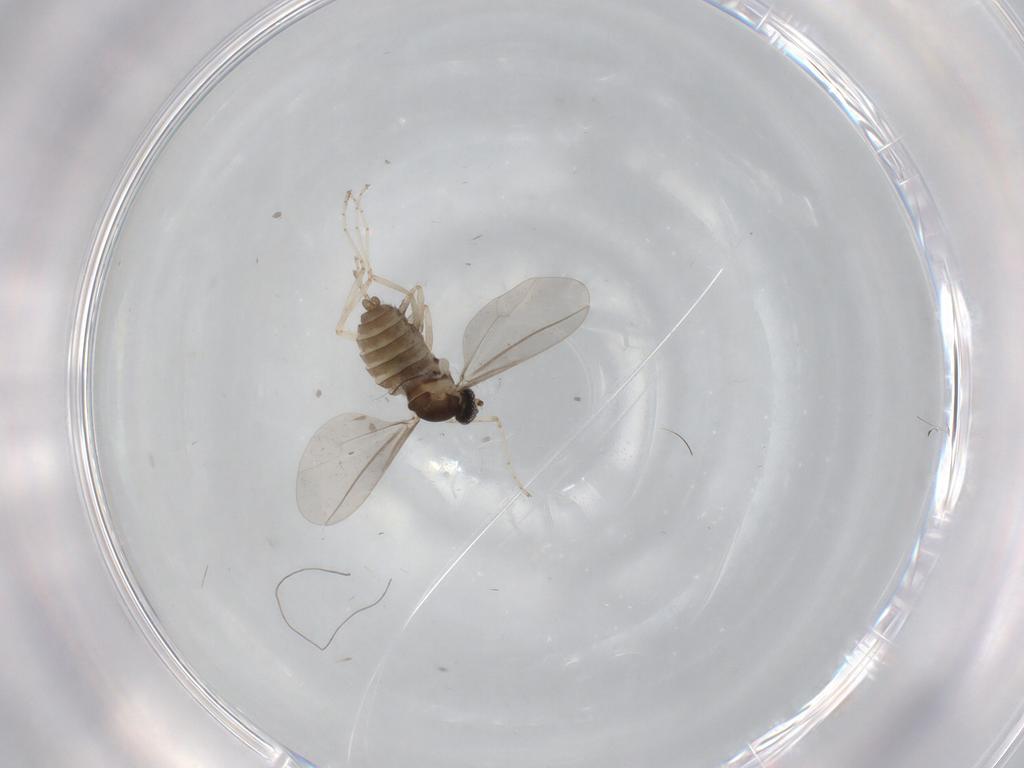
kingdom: Animalia
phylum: Arthropoda
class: Insecta
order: Diptera
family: Cecidomyiidae
